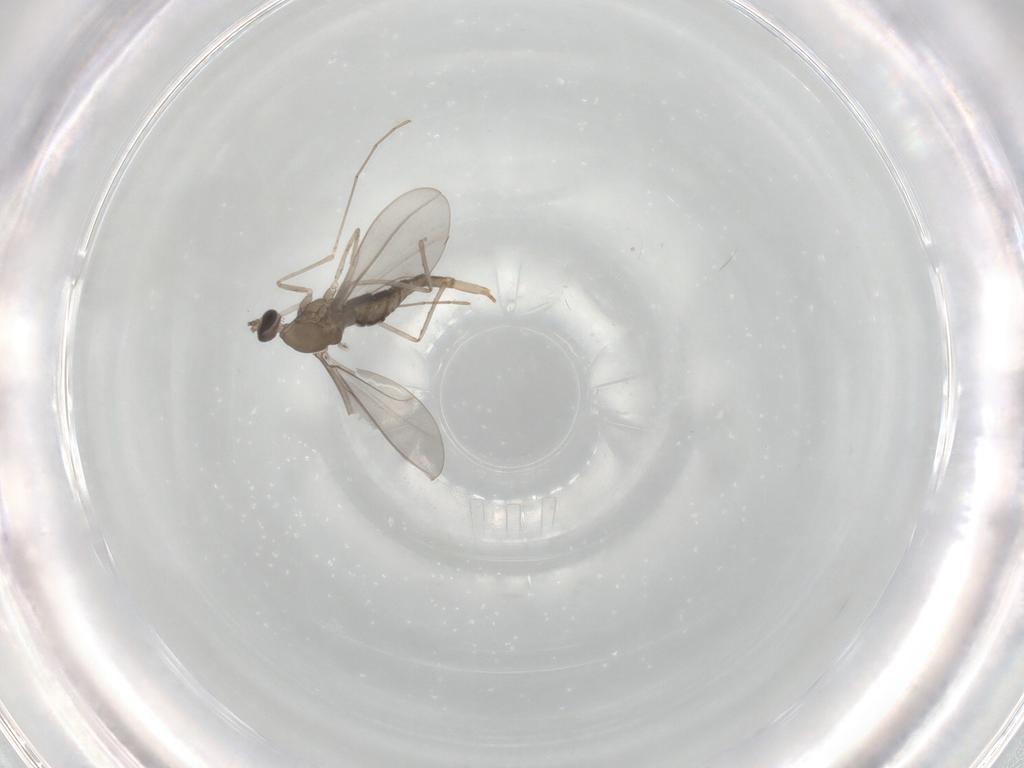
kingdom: Animalia
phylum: Arthropoda
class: Insecta
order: Diptera
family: Cecidomyiidae
